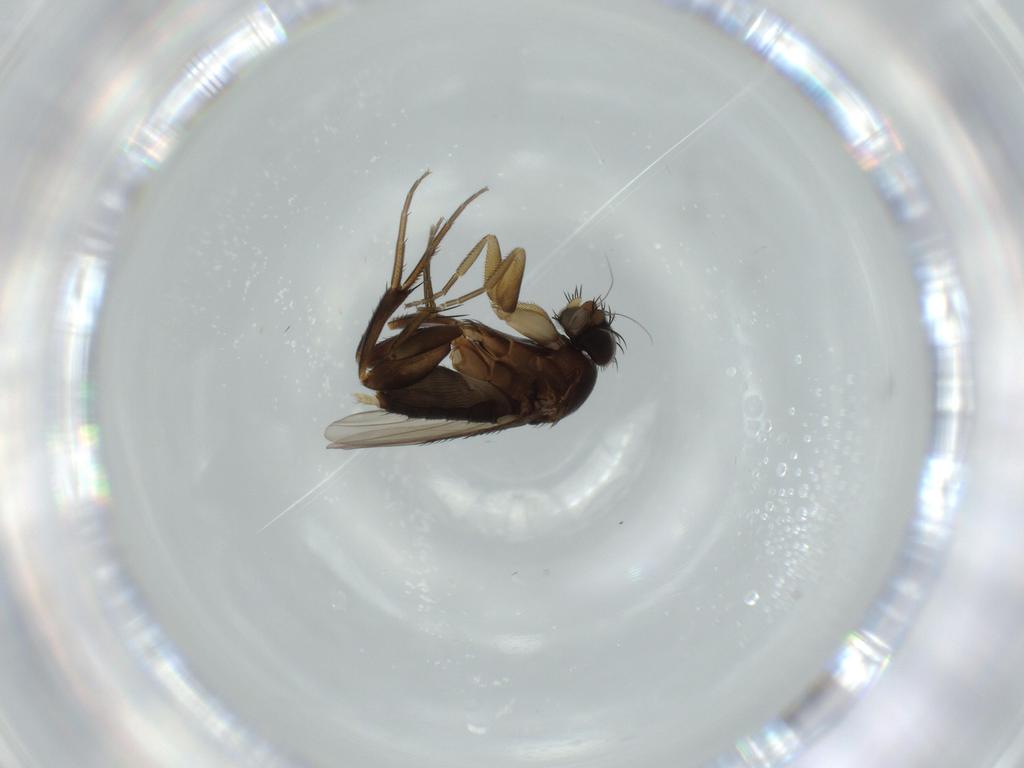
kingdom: Animalia
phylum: Arthropoda
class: Insecta
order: Diptera
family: Phoridae
